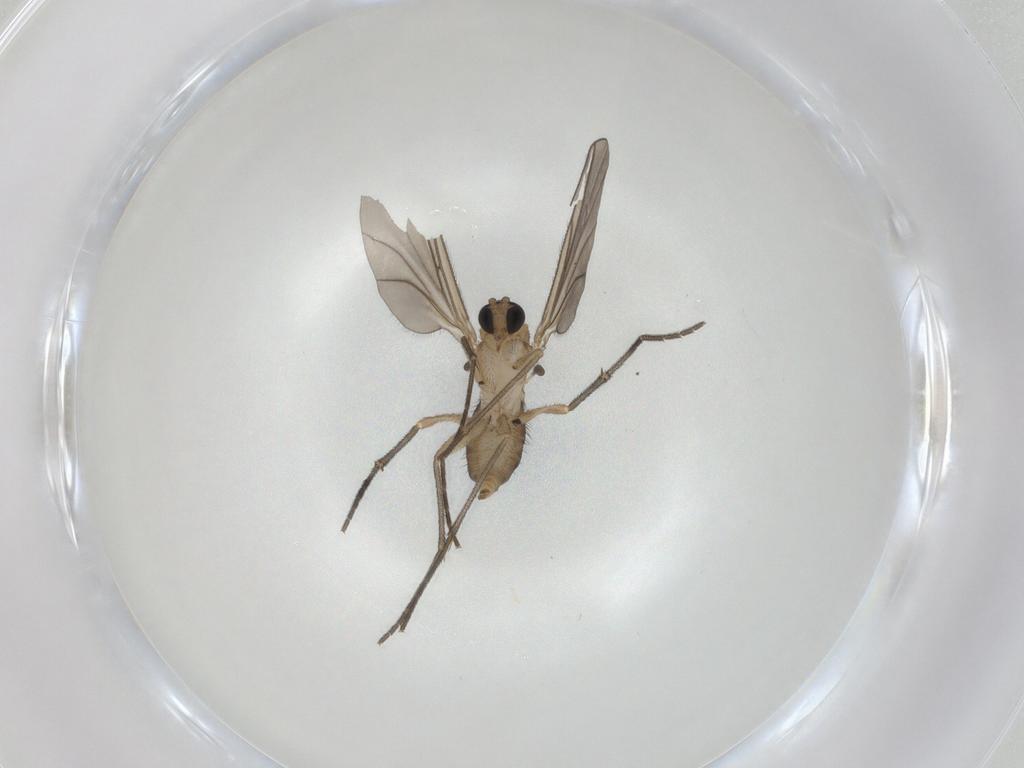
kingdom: Animalia
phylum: Arthropoda
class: Insecta
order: Diptera
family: Sciaridae
